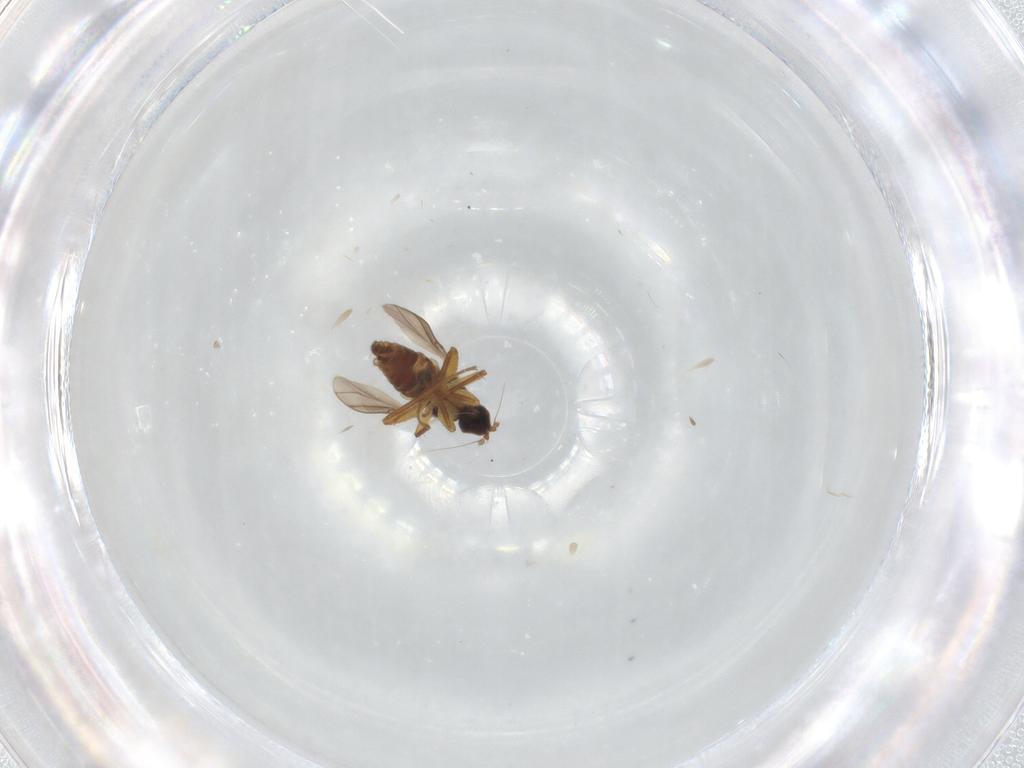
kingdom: Animalia
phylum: Arthropoda
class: Insecta
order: Diptera
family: Hybotidae
